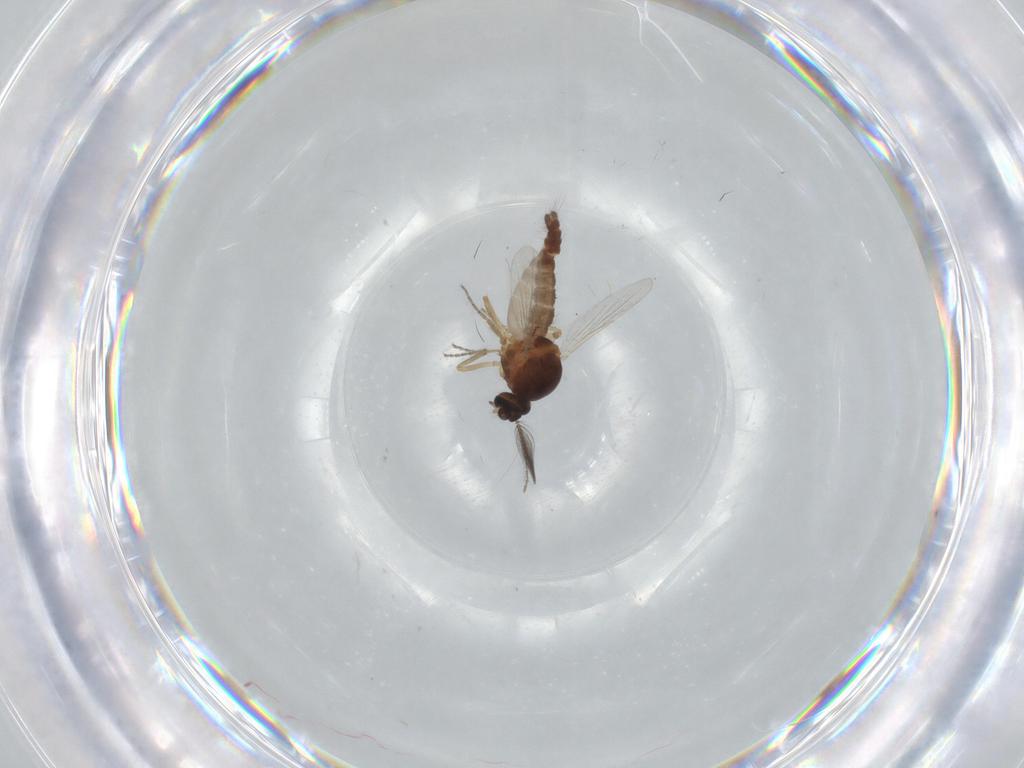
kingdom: Animalia
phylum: Arthropoda
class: Insecta
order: Diptera
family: Ceratopogonidae
